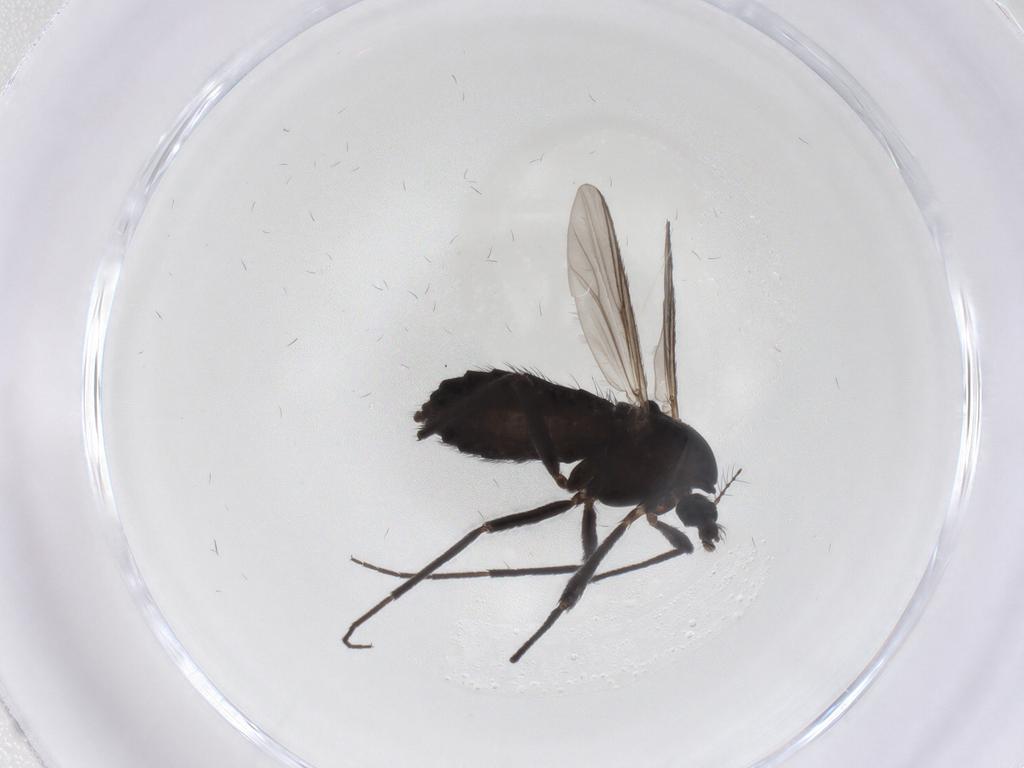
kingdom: Animalia
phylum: Arthropoda
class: Insecta
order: Diptera
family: Chironomidae
